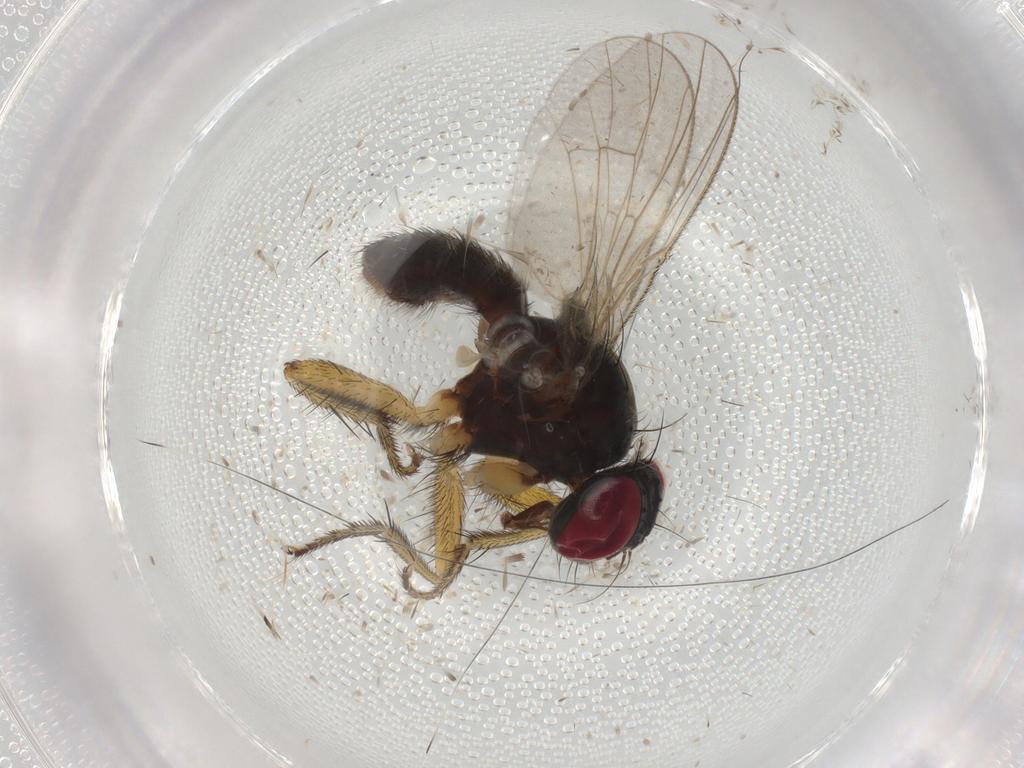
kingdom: Animalia
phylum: Arthropoda
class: Insecta
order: Diptera
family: Muscidae
